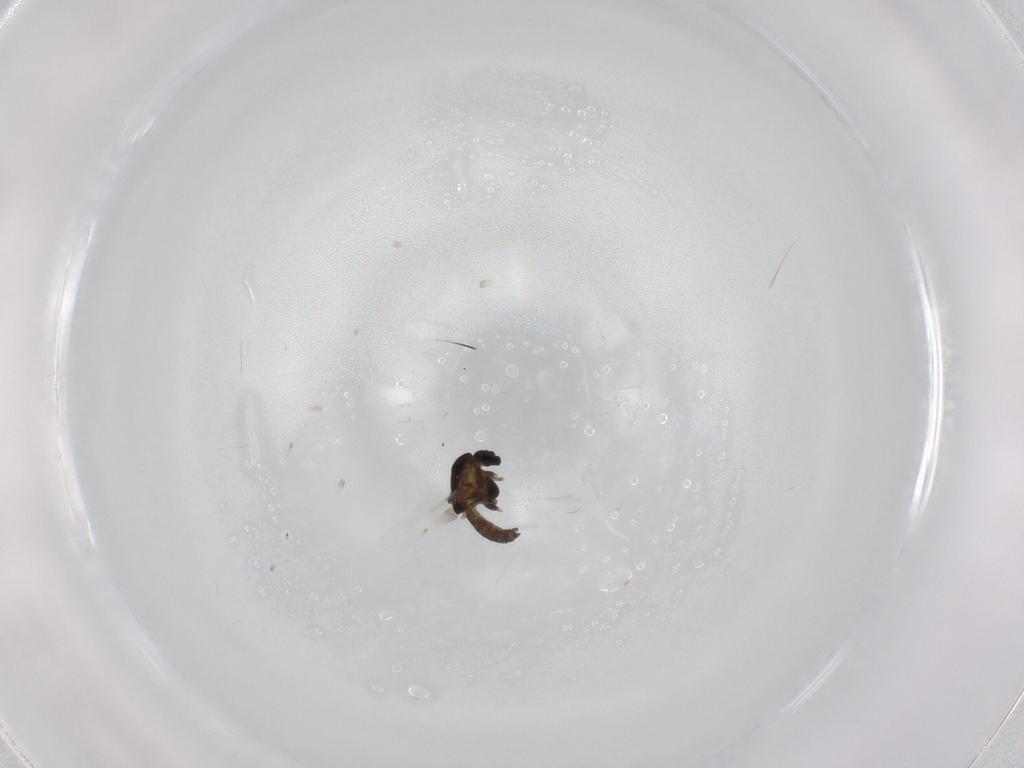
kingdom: Animalia
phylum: Arthropoda
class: Insecta
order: Diptera
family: Chironomidae
